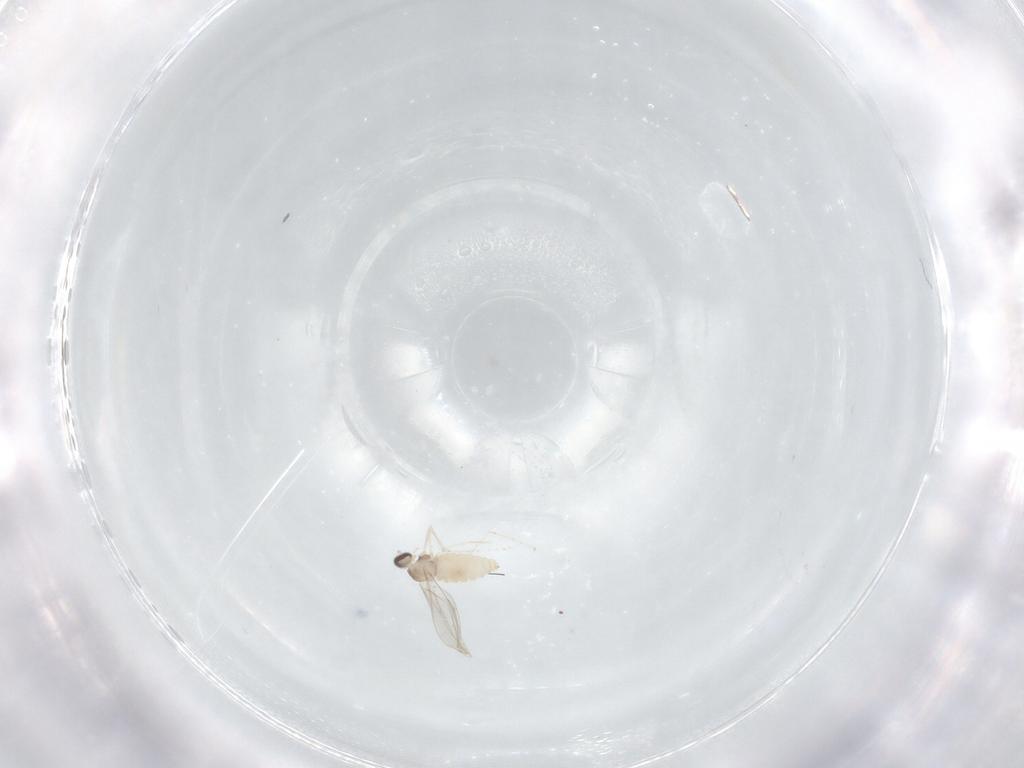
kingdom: Animalia
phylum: Arthropoda
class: Insecta
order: Diptera
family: Cecidomyiidae
